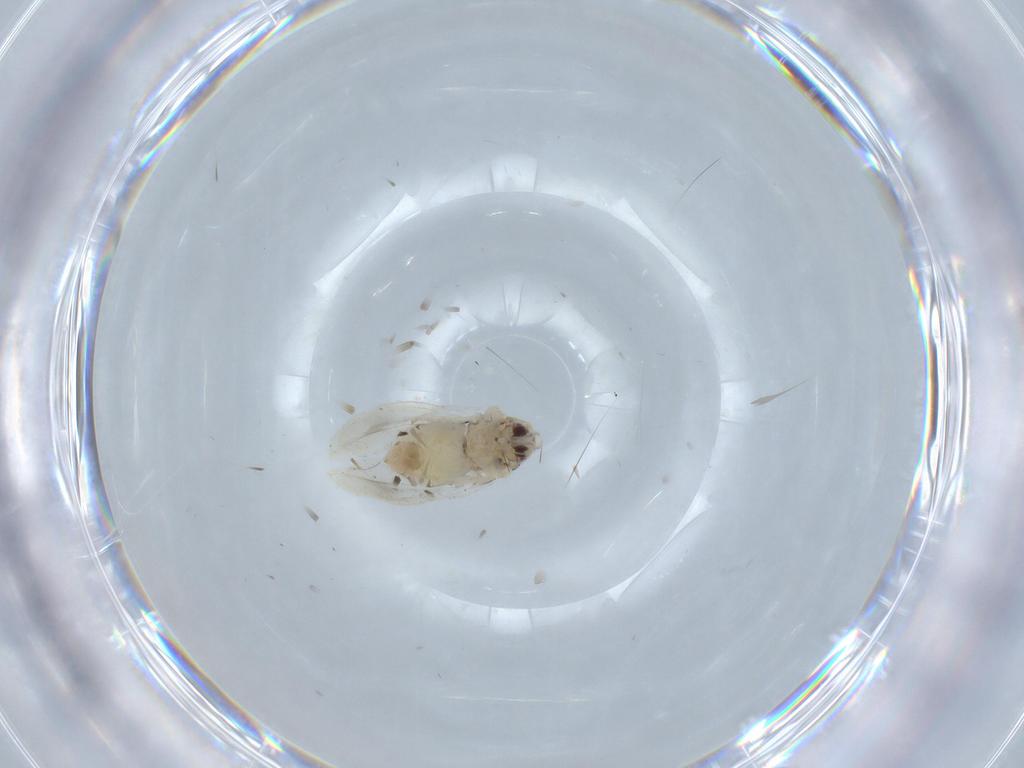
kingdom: Animalia
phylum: Arthropoda
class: Insecta
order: Hemiptera
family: Aleyrodidae
